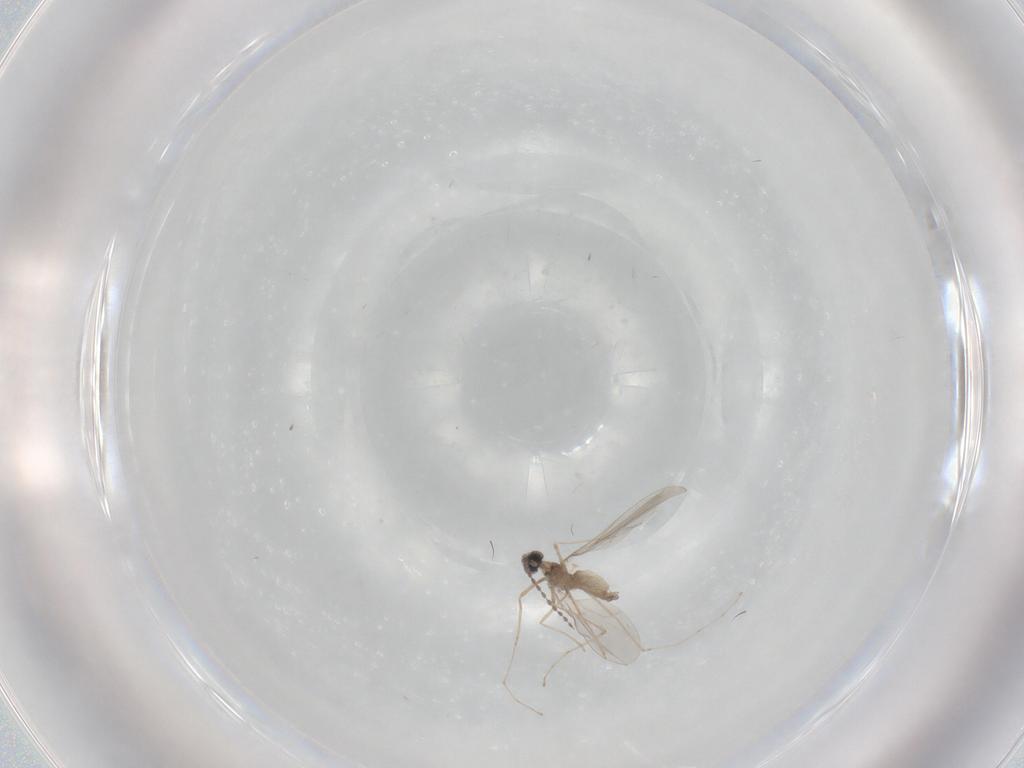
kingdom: Animalia
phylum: Arthropoda
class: Insecta
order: Diptera
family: Cecidomyiidae
